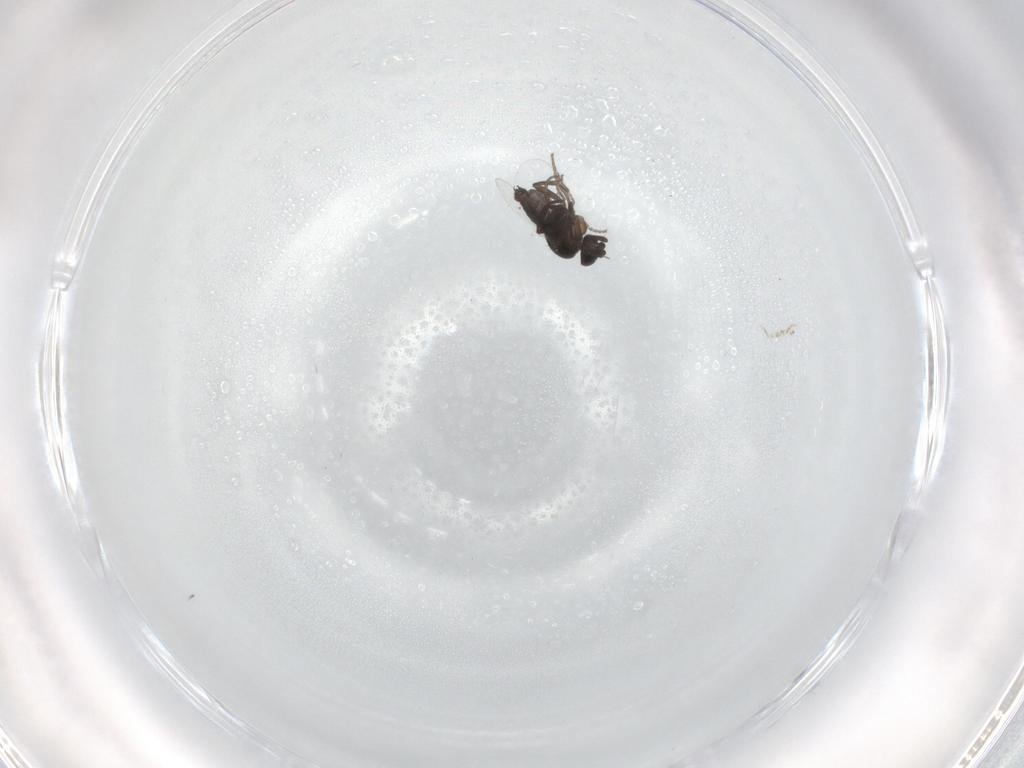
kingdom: Animalia
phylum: Arthropoda
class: Insecta
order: Diptera
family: Phoridae
